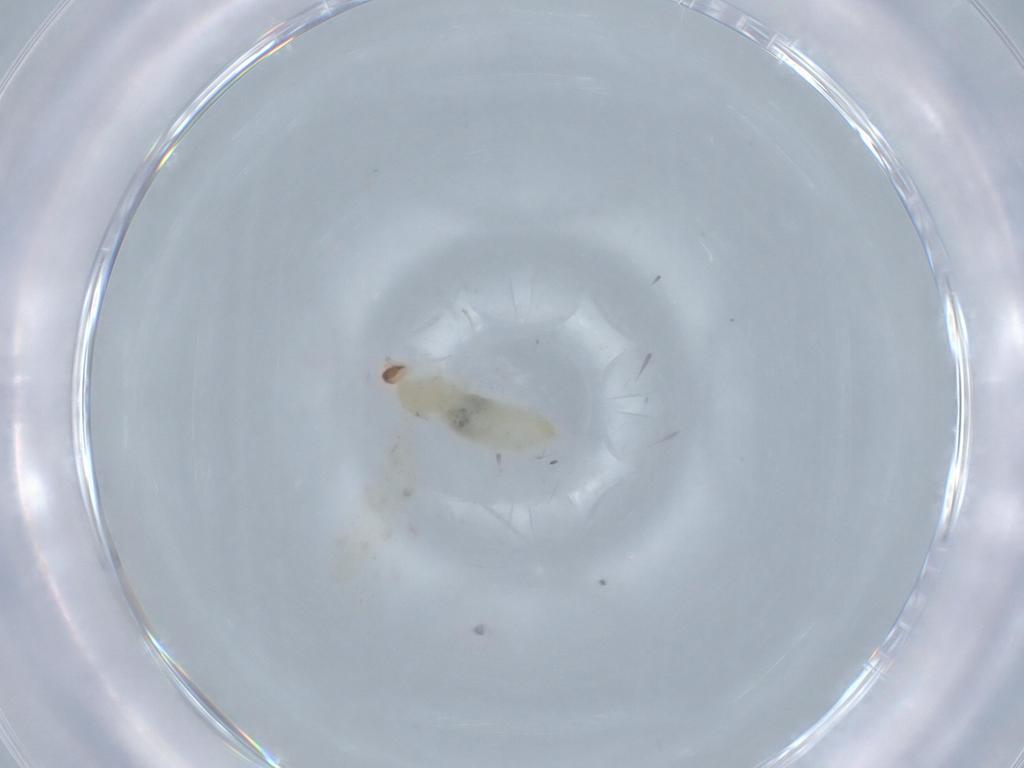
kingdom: Animalia
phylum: Arthropoda
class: Insecta
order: Diptera
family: Cecidomyiidae
